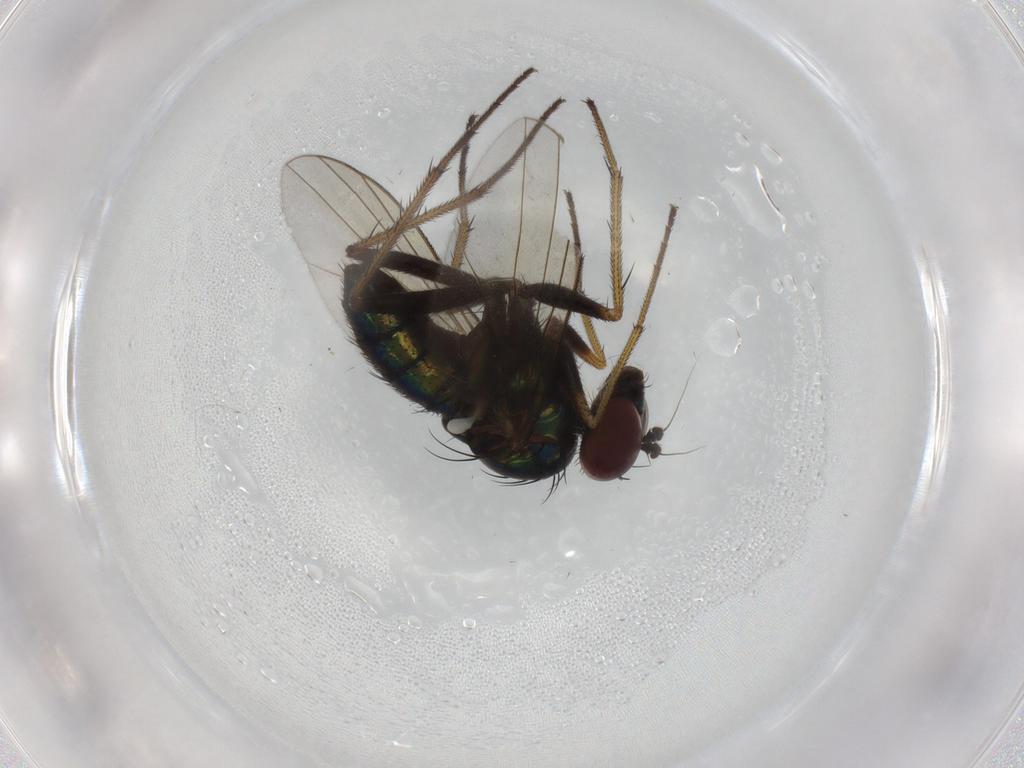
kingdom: Animalia
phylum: Arthropoda
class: Insecta
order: Diptera
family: Dolichopodidae
